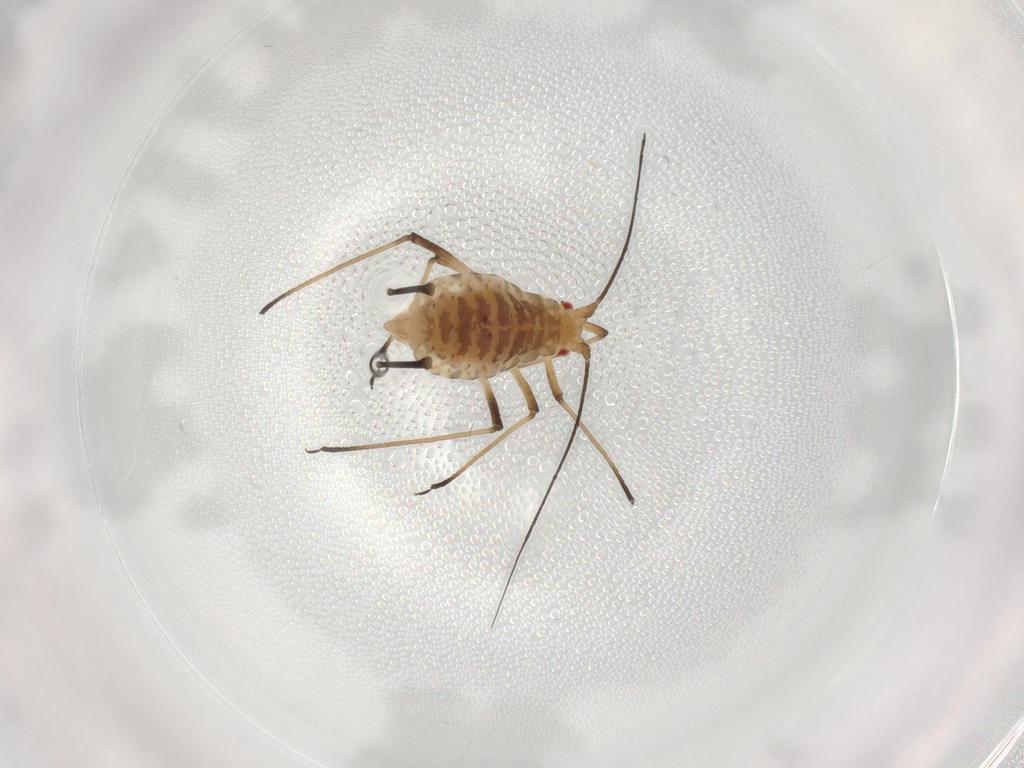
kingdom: Animalia
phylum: Arthropoda
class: Insecta
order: Hemiptera
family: Aphididae
